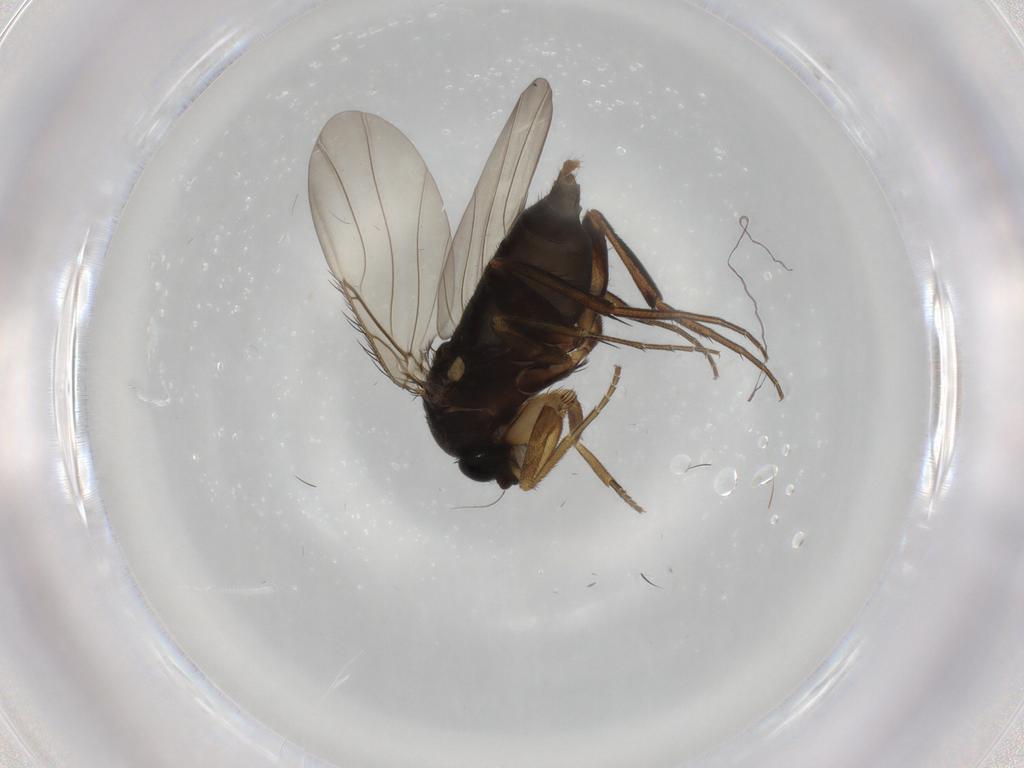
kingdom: Animalia
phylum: Arthropoda
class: Insecta
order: Diptera
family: Phoridae
